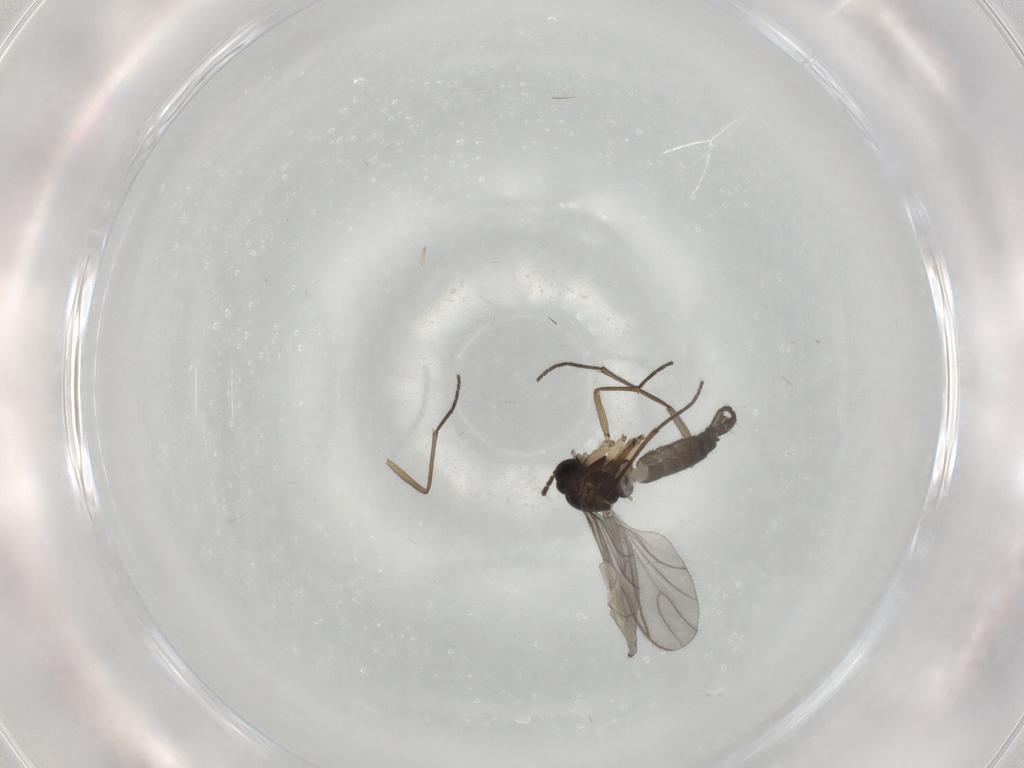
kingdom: Animalia
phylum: Arthropoda
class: Insecta
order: Diptera
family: Sciaridae
